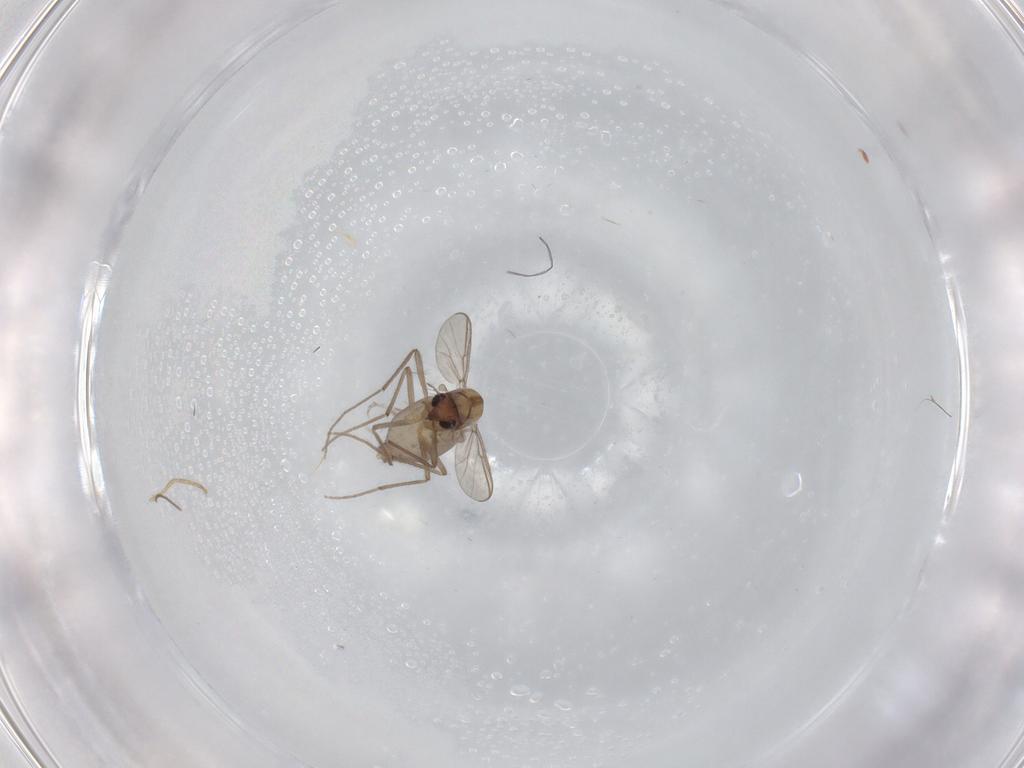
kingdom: Animalia
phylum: Arthropoda
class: Insecta
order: Diptera
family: Chironomidae
